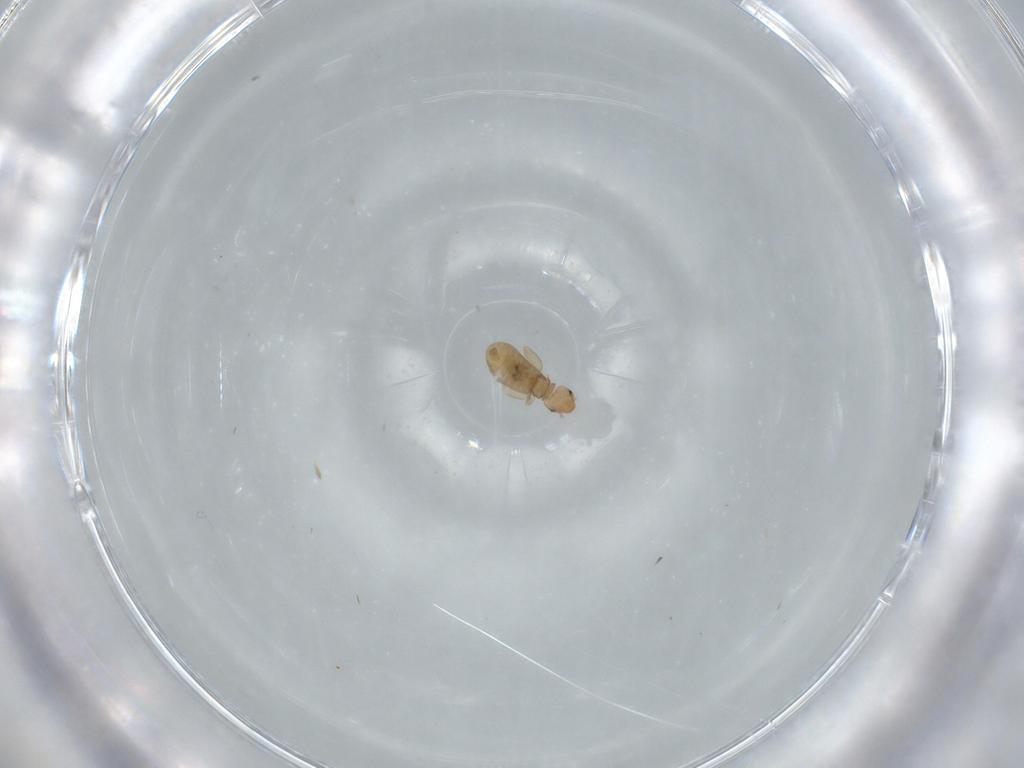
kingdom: Animalia
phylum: Arthropoda
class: Insecta
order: Psocodea
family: Liposcelididae
